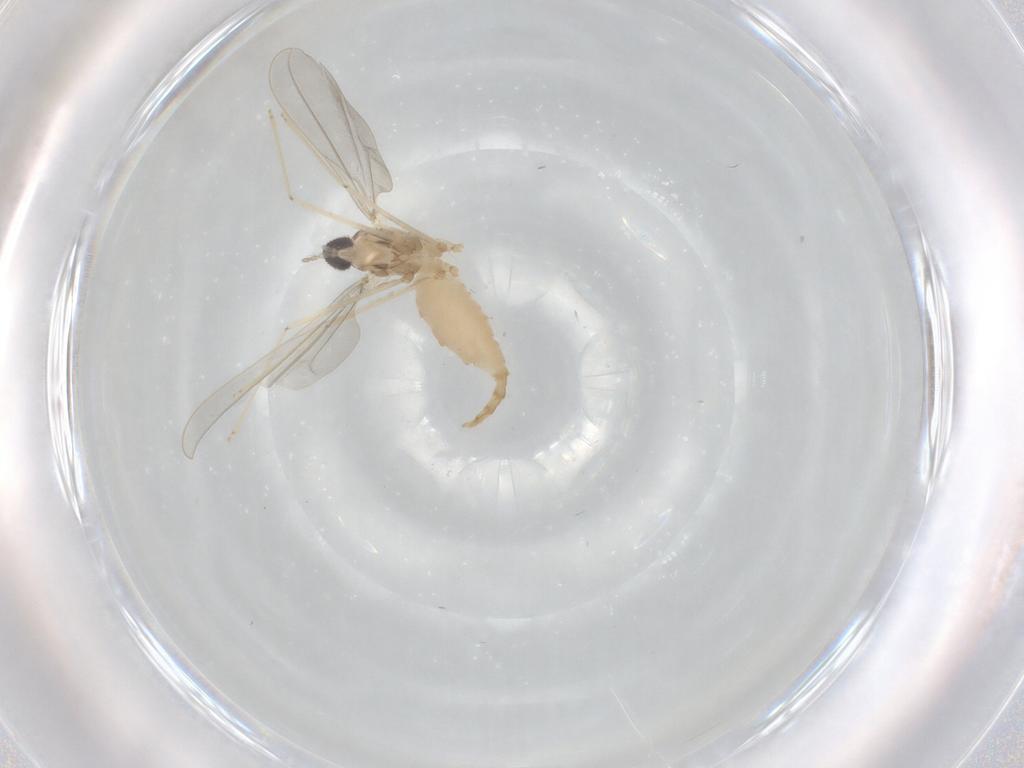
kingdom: Animalia
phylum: Arthropoda
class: Insecta
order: Diptera
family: Cecidomyiidae
